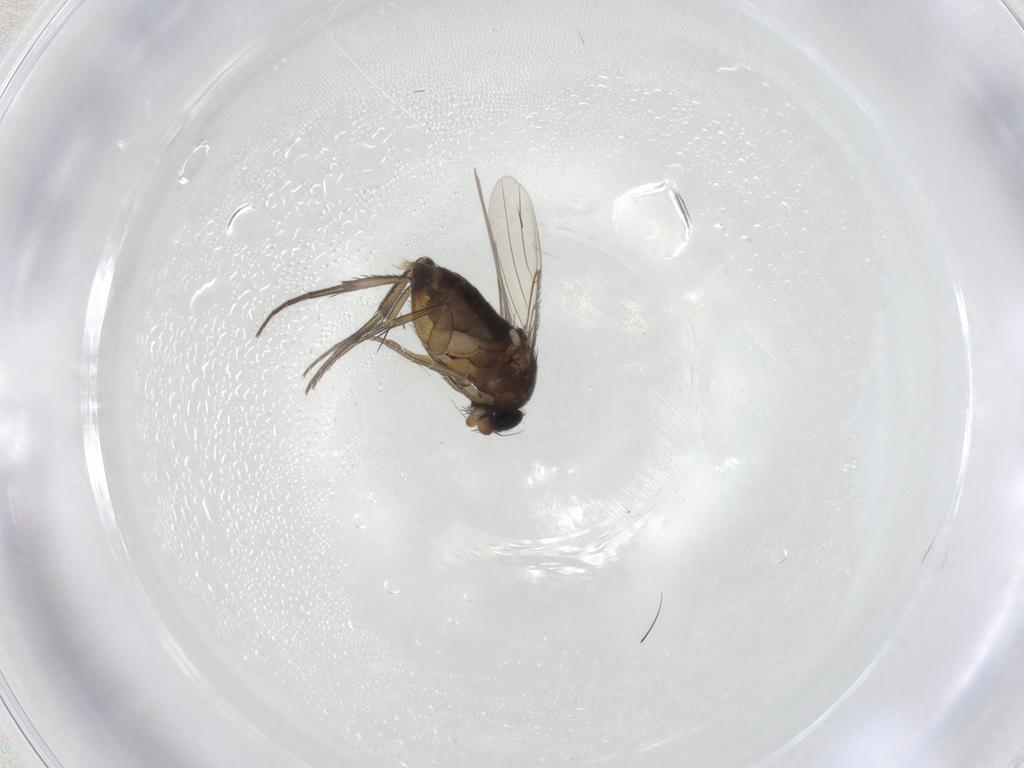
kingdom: Animalia
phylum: Arthropoda
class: Insecta
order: Diptera
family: Phoridae
